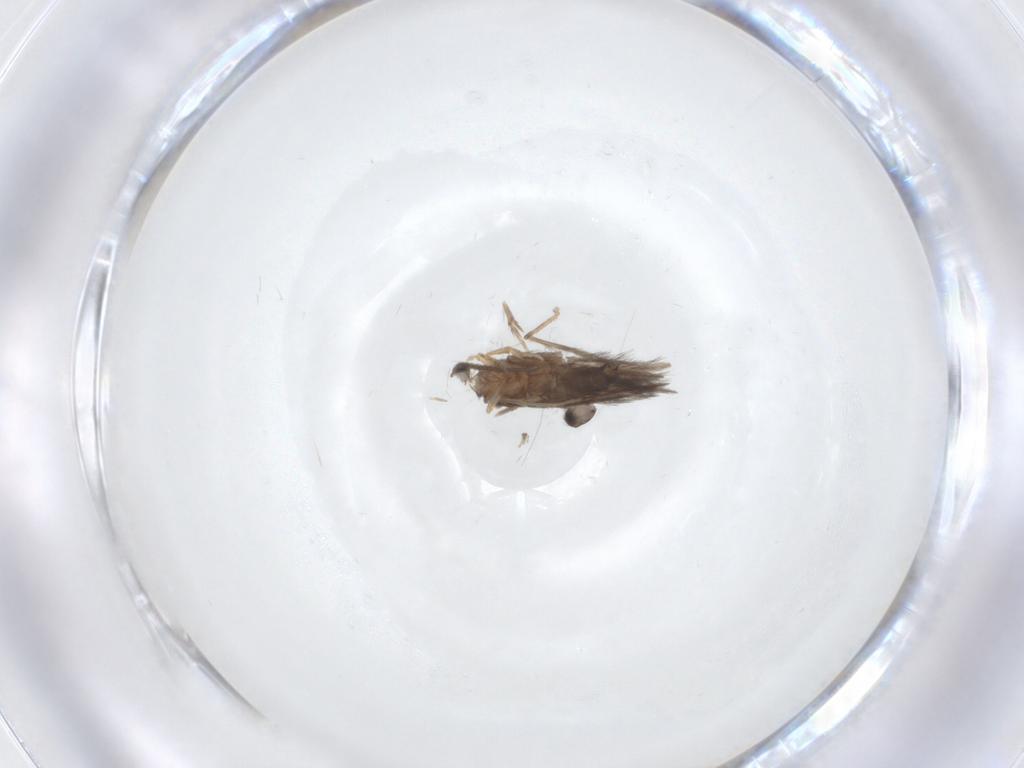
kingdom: Animalia
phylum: Arthropoda
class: Insecta
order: Trichoptera
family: Hydroptilidae
